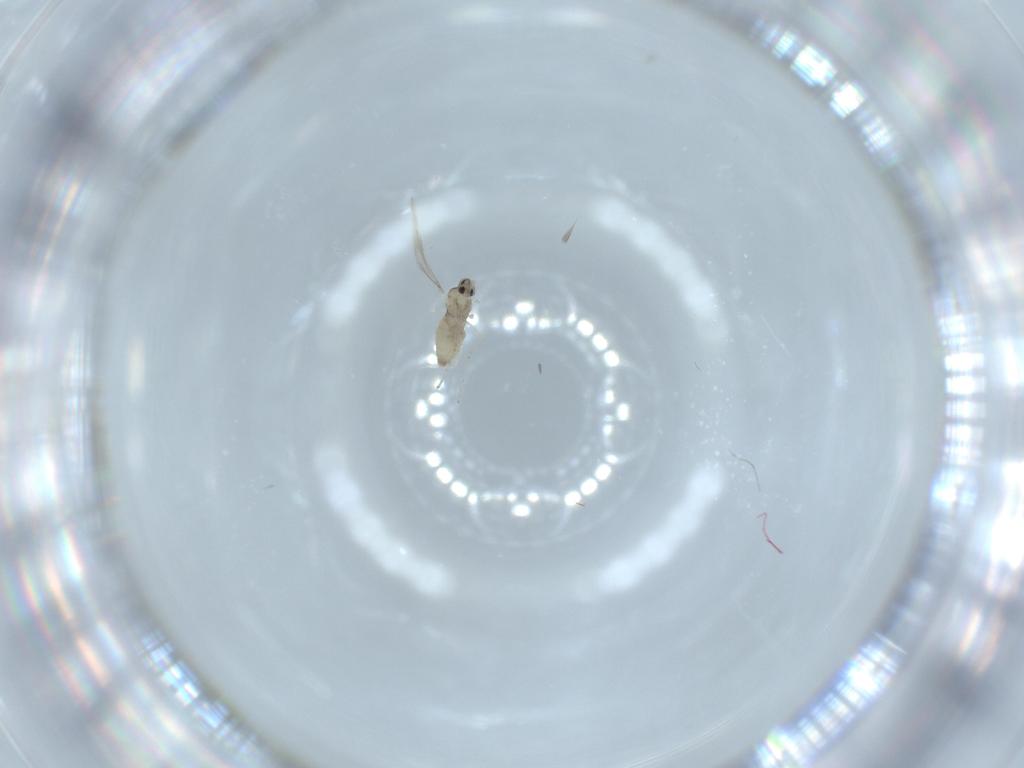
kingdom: Animalia
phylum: Arthropoda
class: Insecta
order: Diptera
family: Cecidomyiidae
